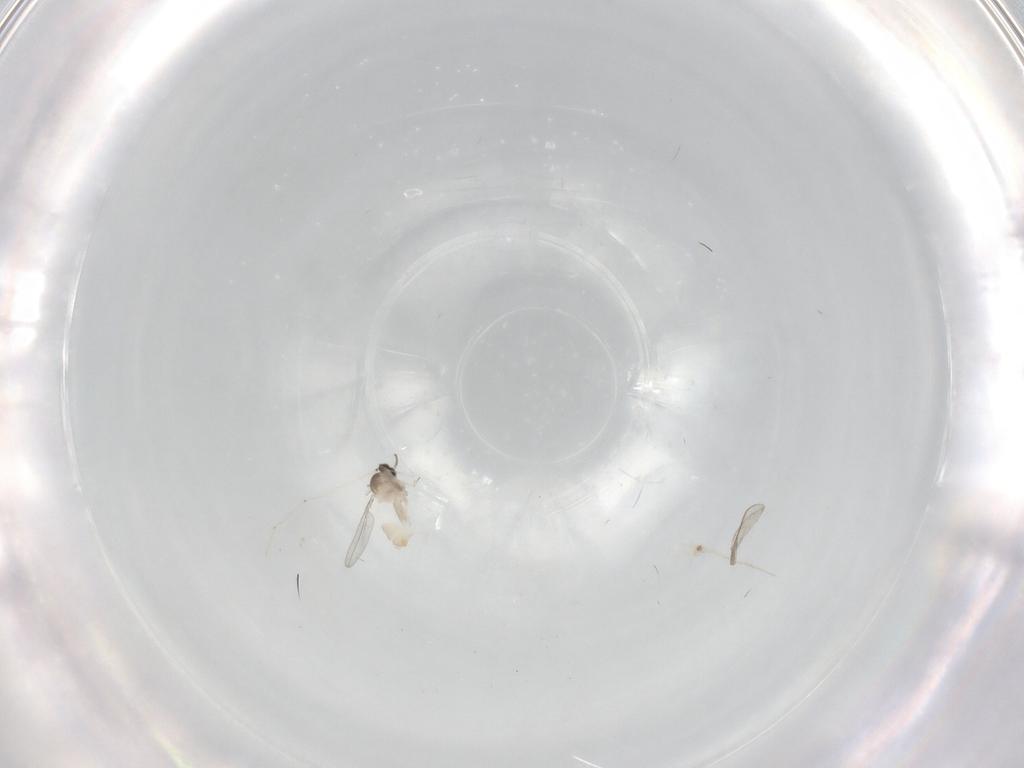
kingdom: Animalia
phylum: Arthropoda
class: Insecta
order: Diptera
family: Cecidomyiidae
